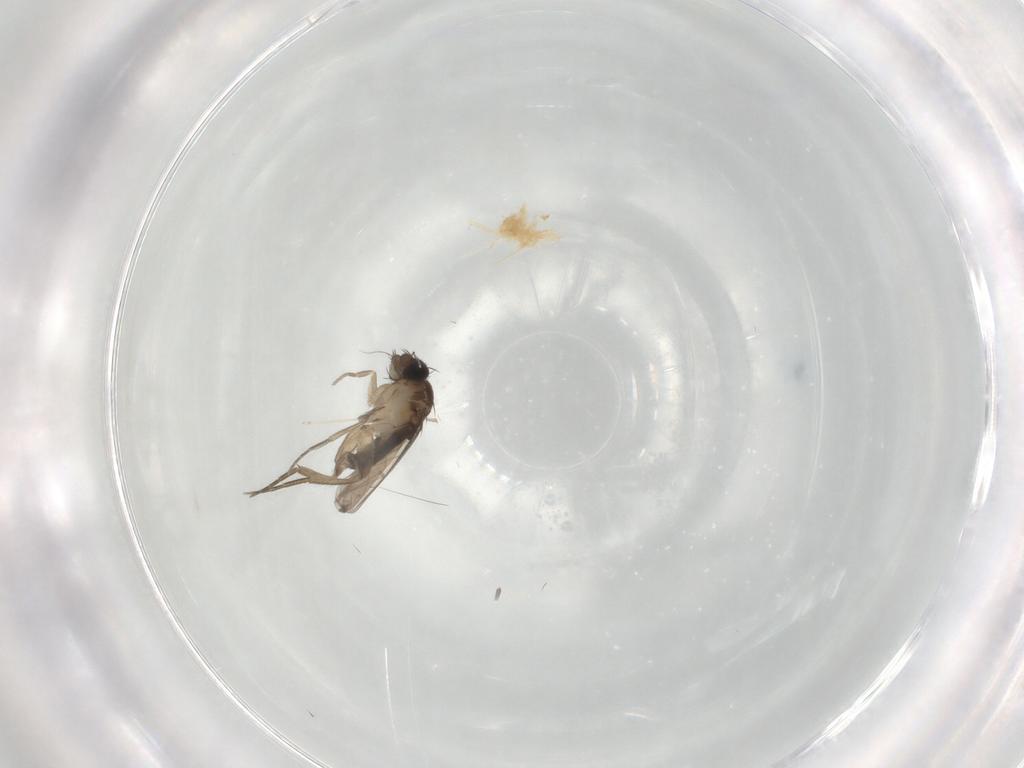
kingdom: Animalia
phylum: Arthropoda
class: Insecta
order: Diptera
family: Phoridae
